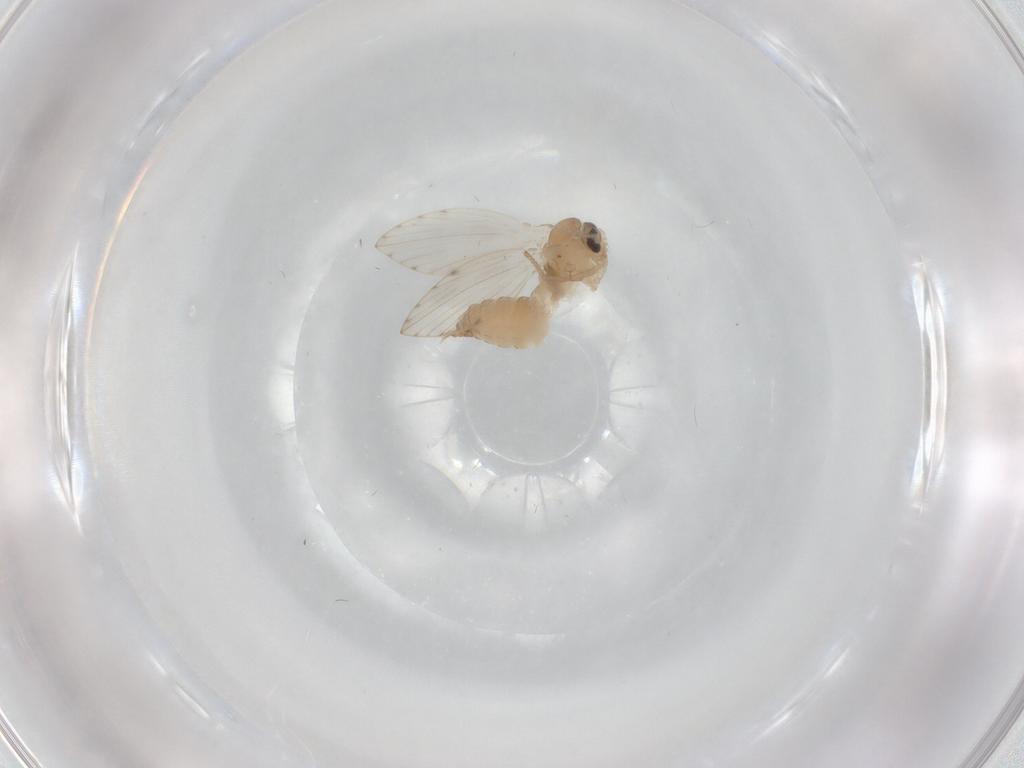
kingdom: Animalia
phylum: Arthropoda
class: Insecta
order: Diptera
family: Psychodidae
